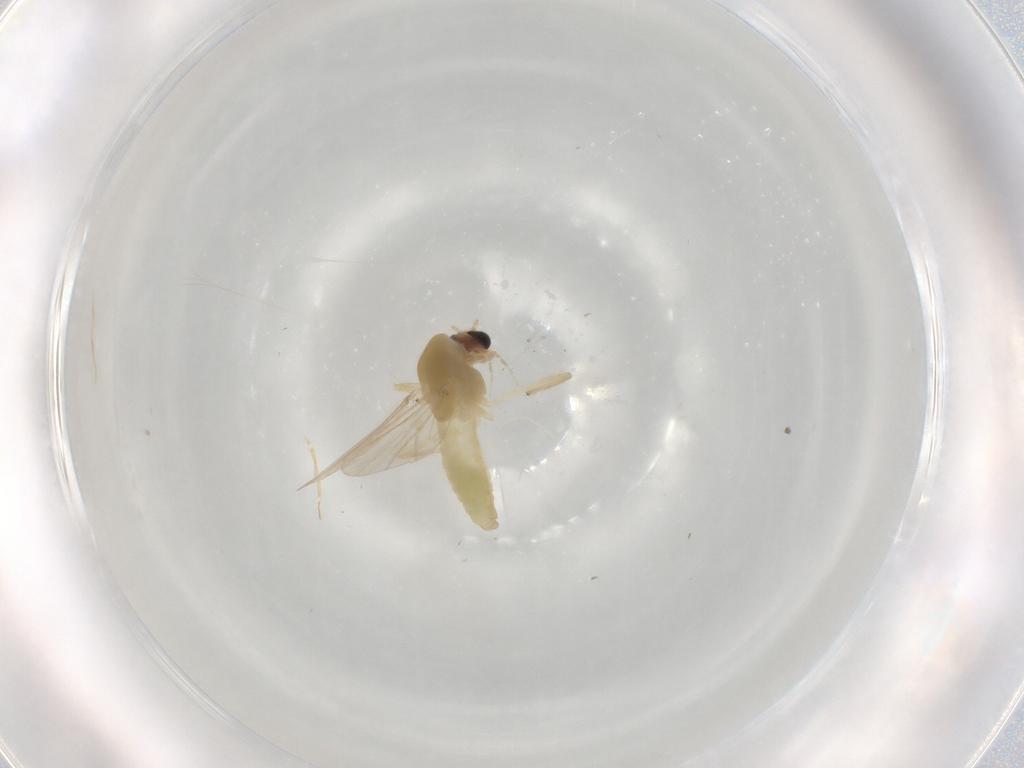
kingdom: Animalia
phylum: Arthropoda
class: Insecta
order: Diptera
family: Chironomidae
